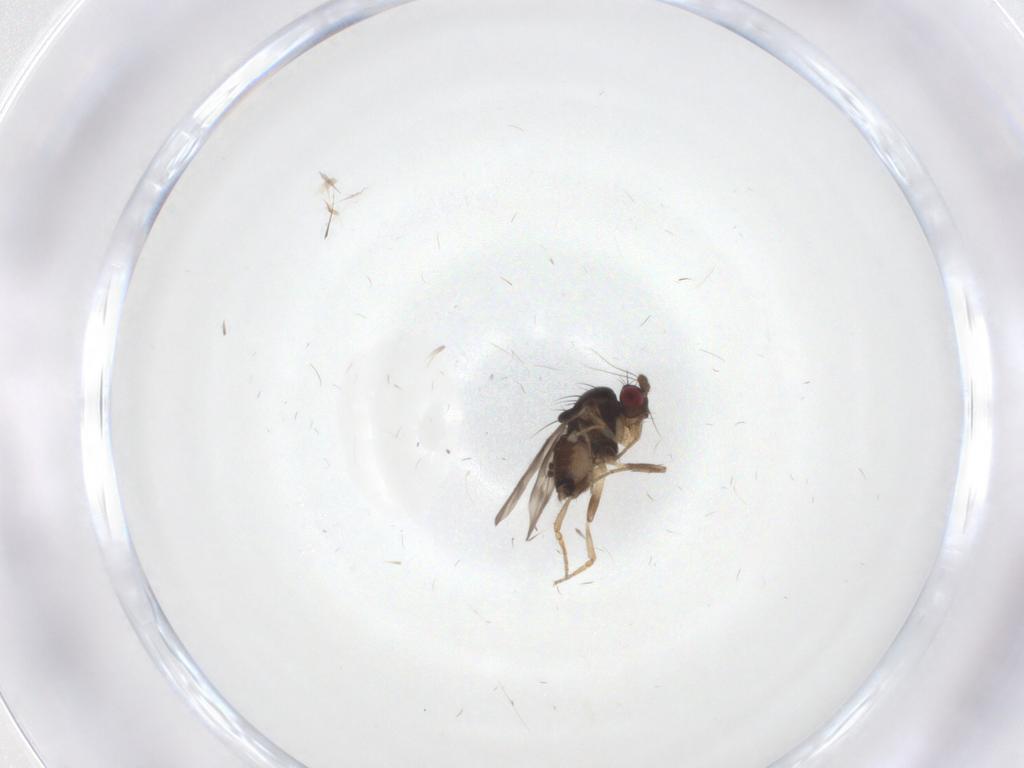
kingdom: Animalia
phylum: Arthropoda
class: Insecta
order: Diptera
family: Sphaeroceridae
